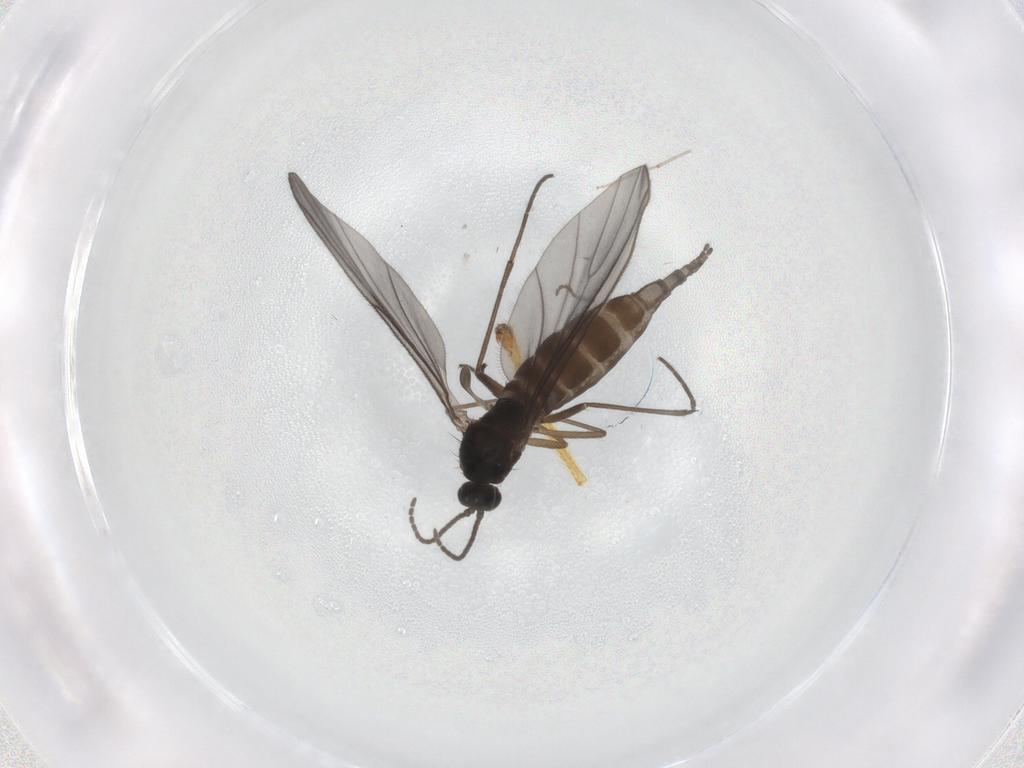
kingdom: Animalia
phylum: Arthropoda
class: Insecta
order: Diptera
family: Sciaridae
